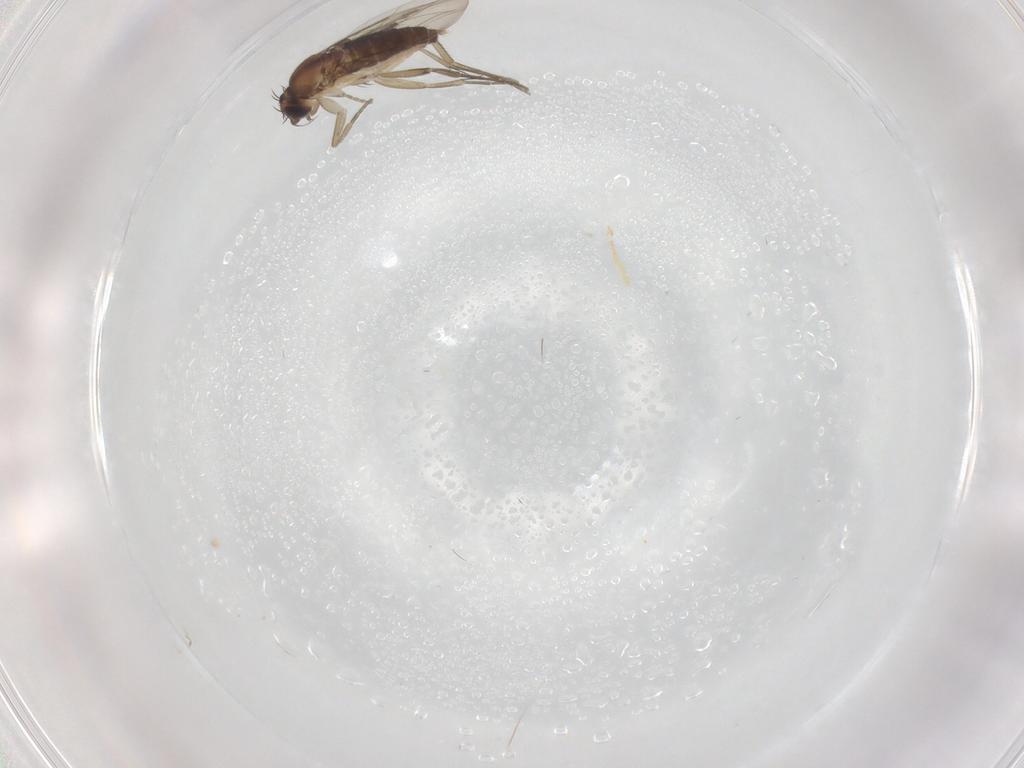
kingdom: Animalia
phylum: Arthropoda
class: Insecta
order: Diptera
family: Phoridae
